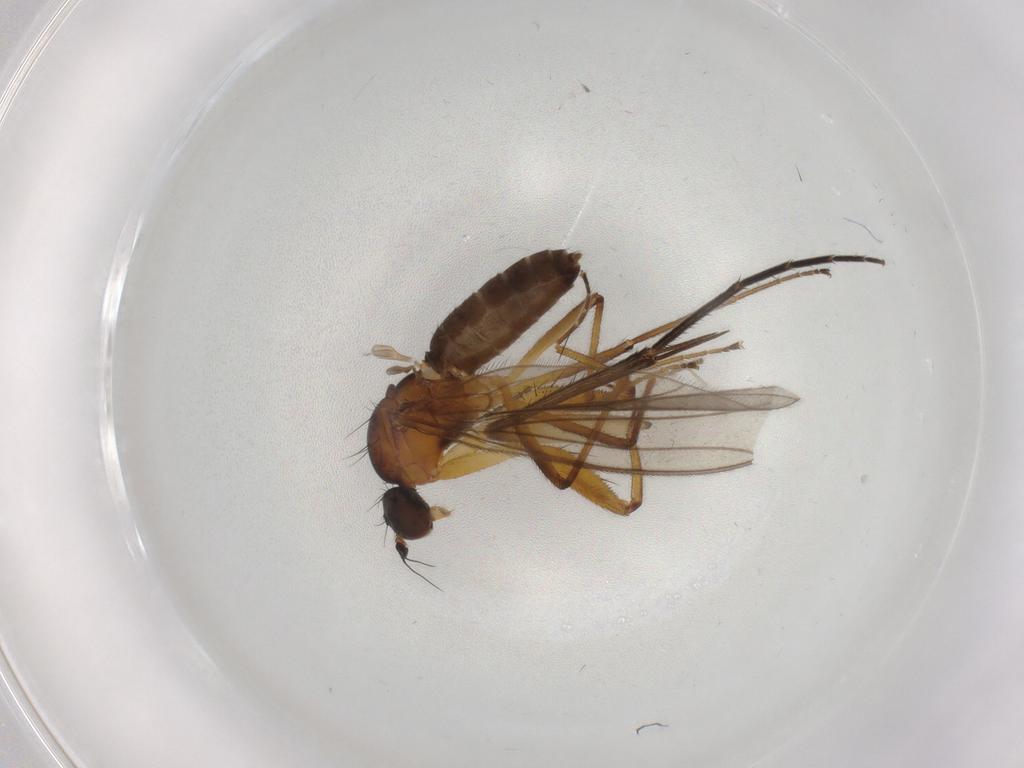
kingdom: Animalia
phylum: Arthropoda
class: Insecta
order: Diptera
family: Empididae
